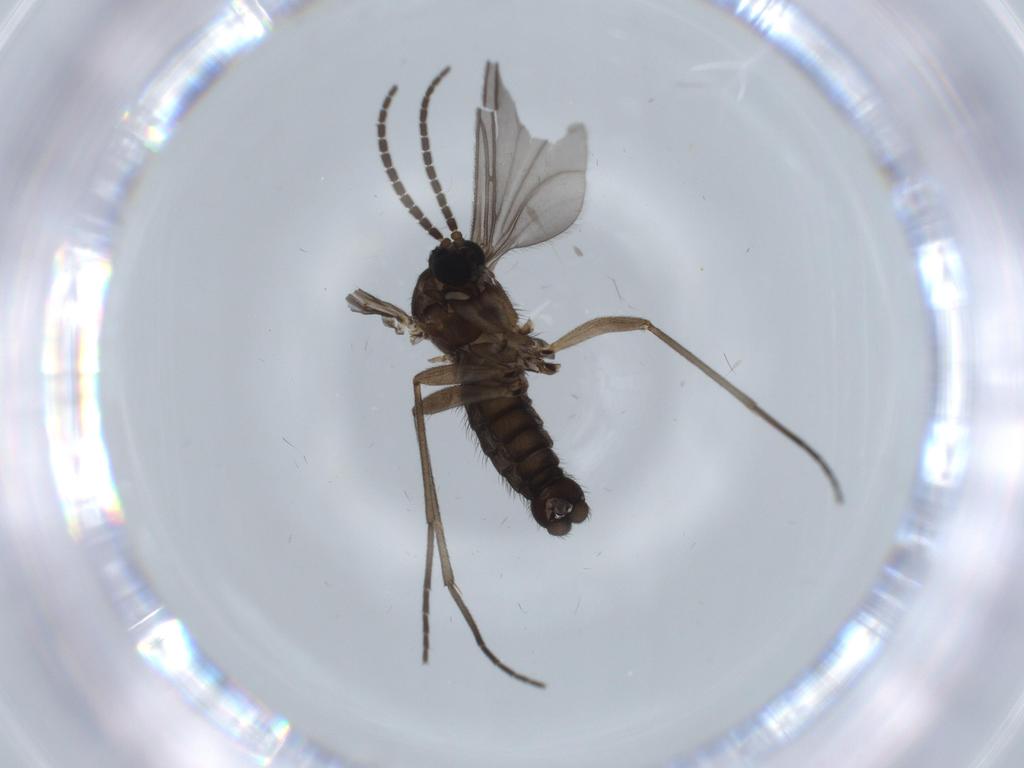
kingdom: Animalia
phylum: Arthropoda
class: Insecta
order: Diptera
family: Sciaridae
